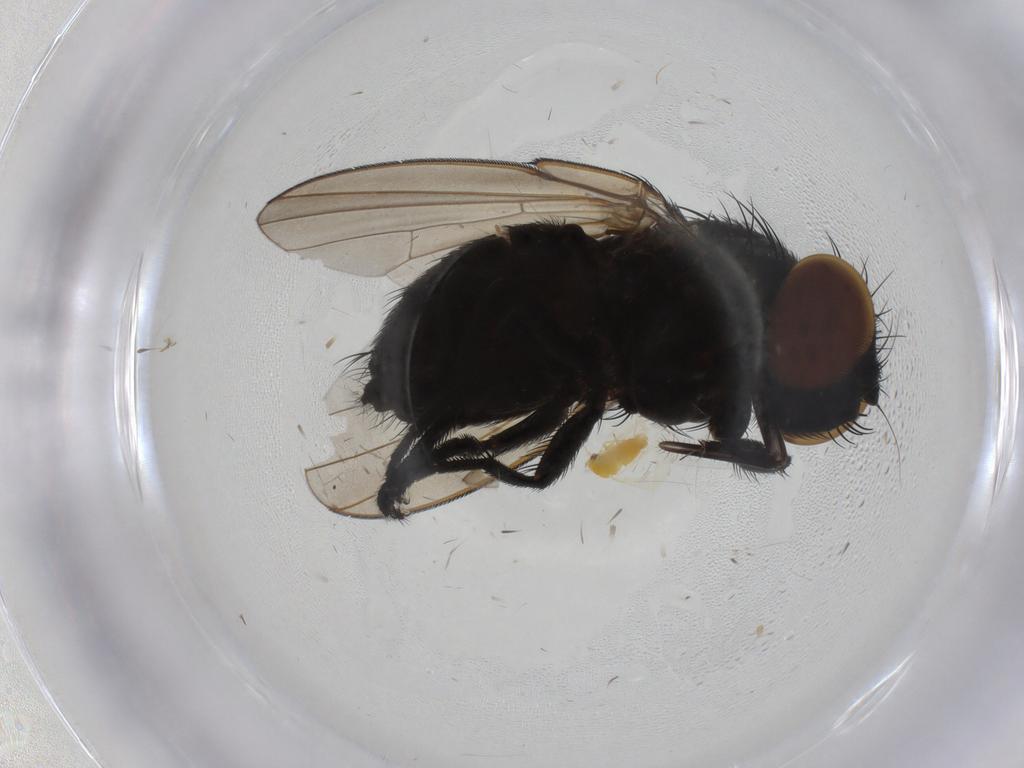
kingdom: Animalia
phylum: Arthropoda
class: Insecta
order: Diptera
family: Milichiidae
